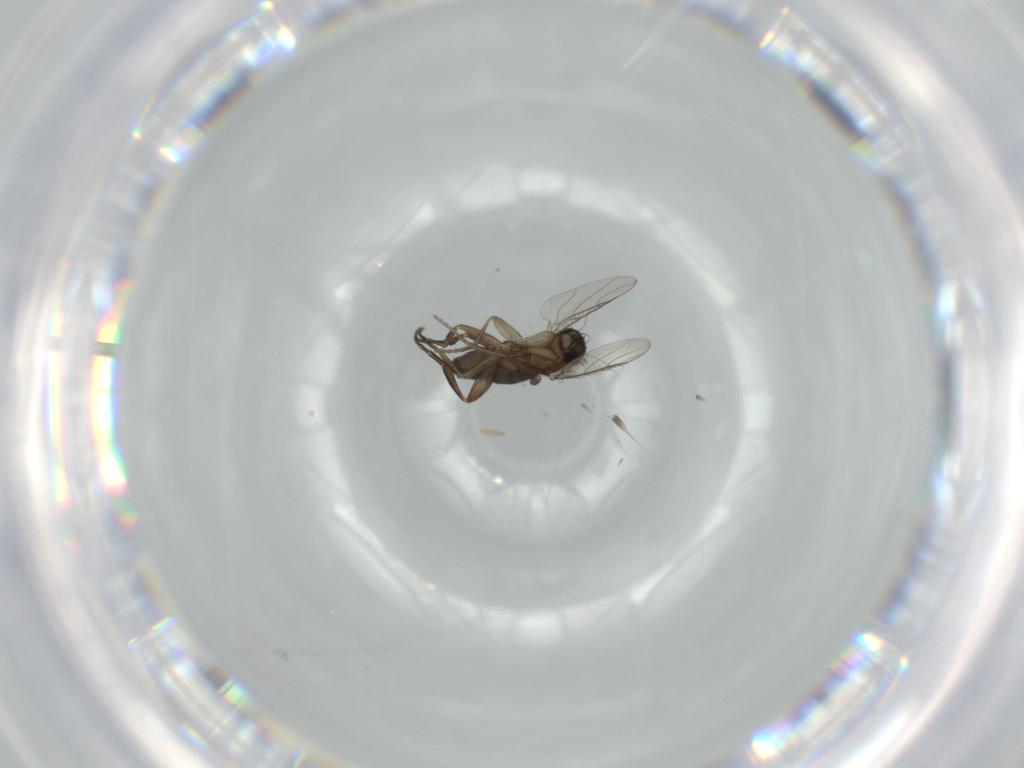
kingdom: Animalia
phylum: Arthropoda
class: Insecta
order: Diptera
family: Phoridae
